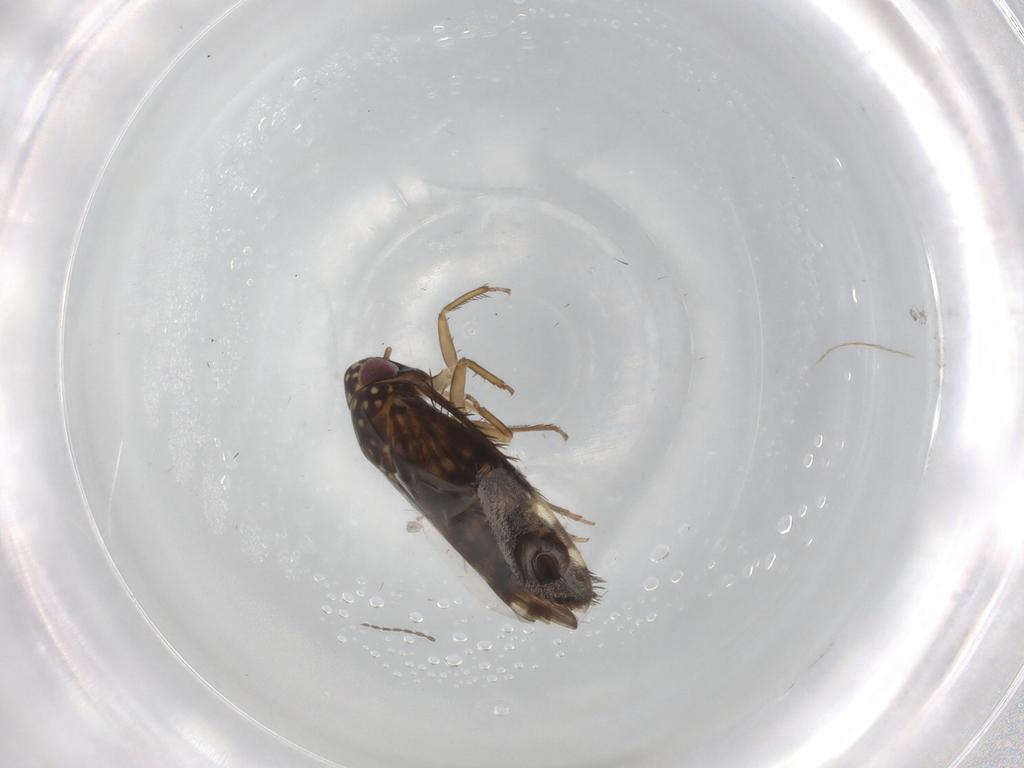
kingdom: Animalia
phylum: Arthropoda
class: Insecta
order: Hemiptera
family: Cicadellidae
